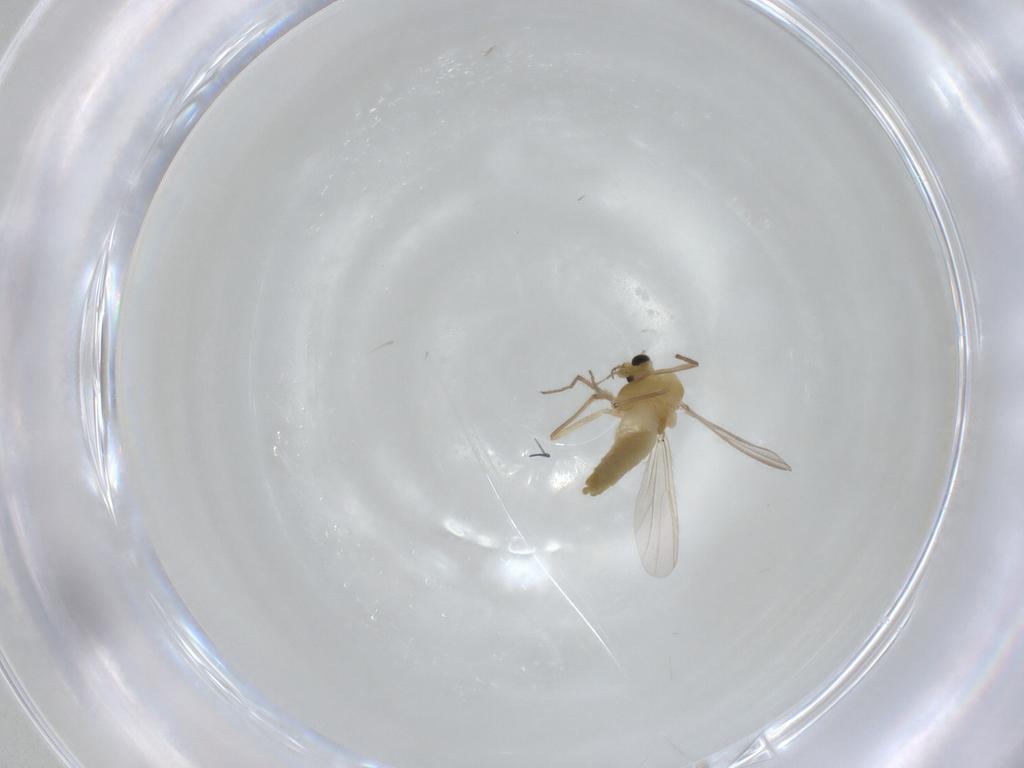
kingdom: Animalia
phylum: Arthropoda
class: Insecta
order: Diptera
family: Chironomidae
